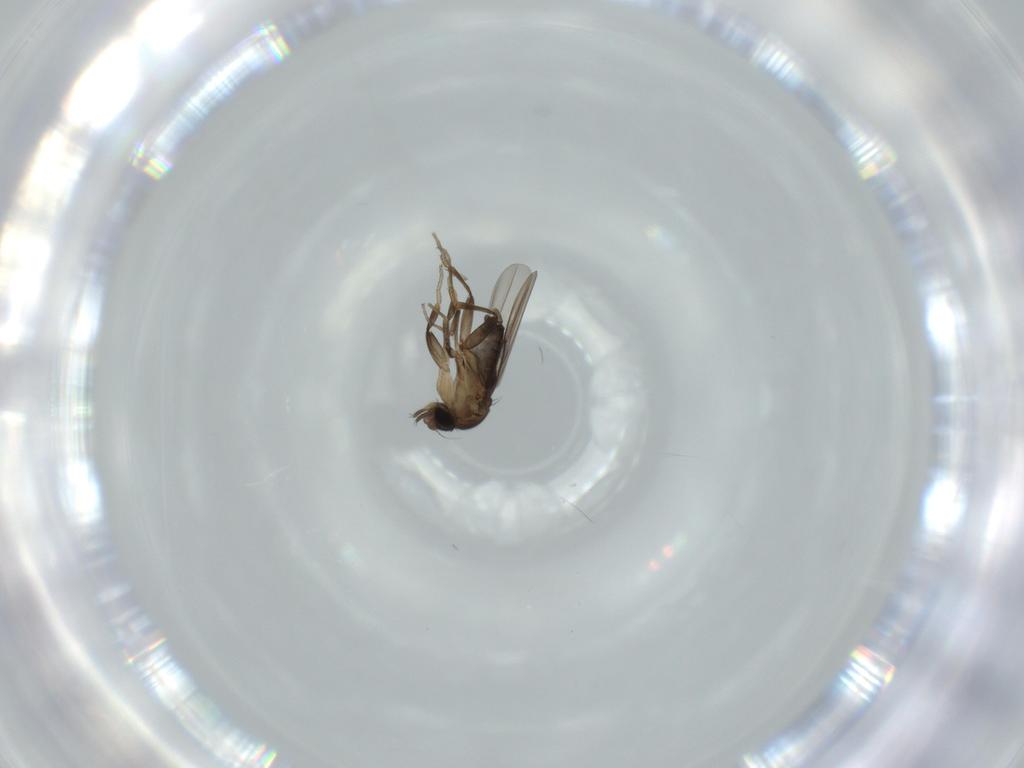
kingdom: Animalia
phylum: Arthropoda
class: Insecta
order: Diptera
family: Phoridae
